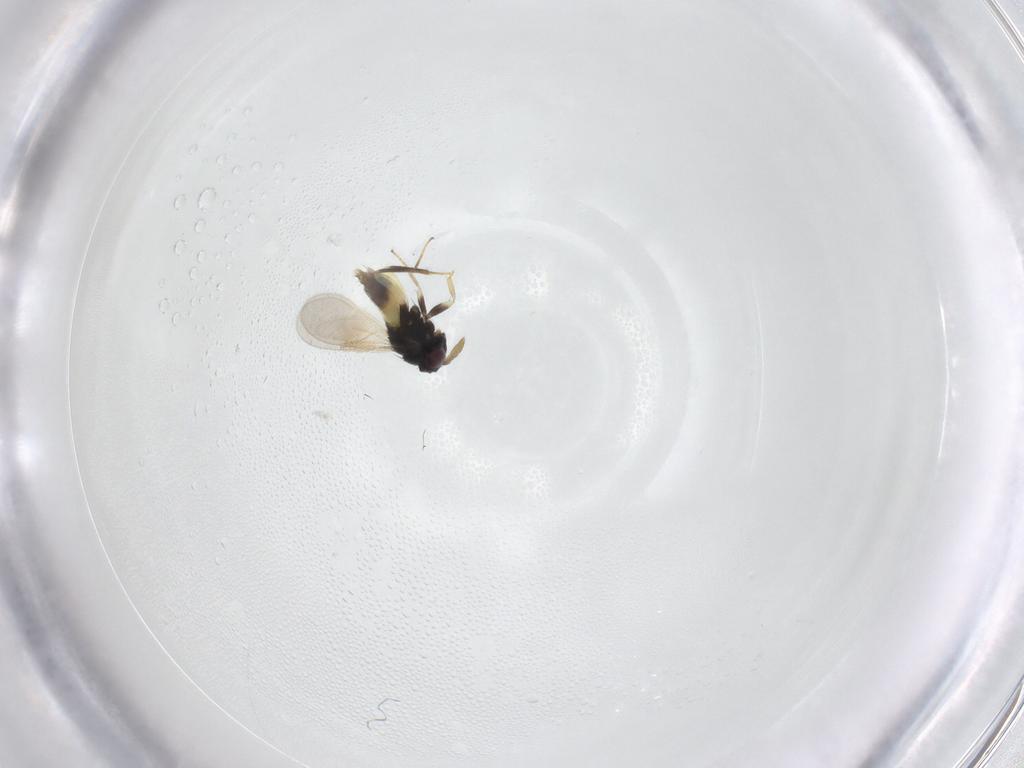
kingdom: Animalia
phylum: Arthropoda
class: Insecta
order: Hymenoptera
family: Aphelinidae
